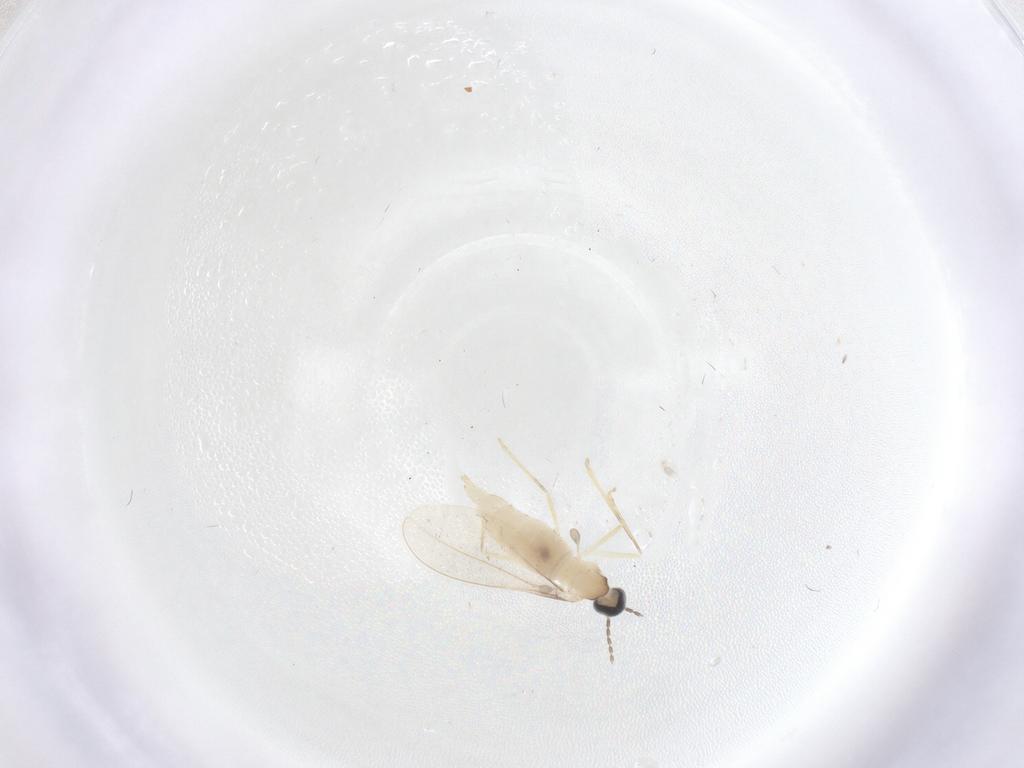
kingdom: Animalia
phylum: Arthropoda
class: Insecta
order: Diptera
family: Cecidomyiidae
